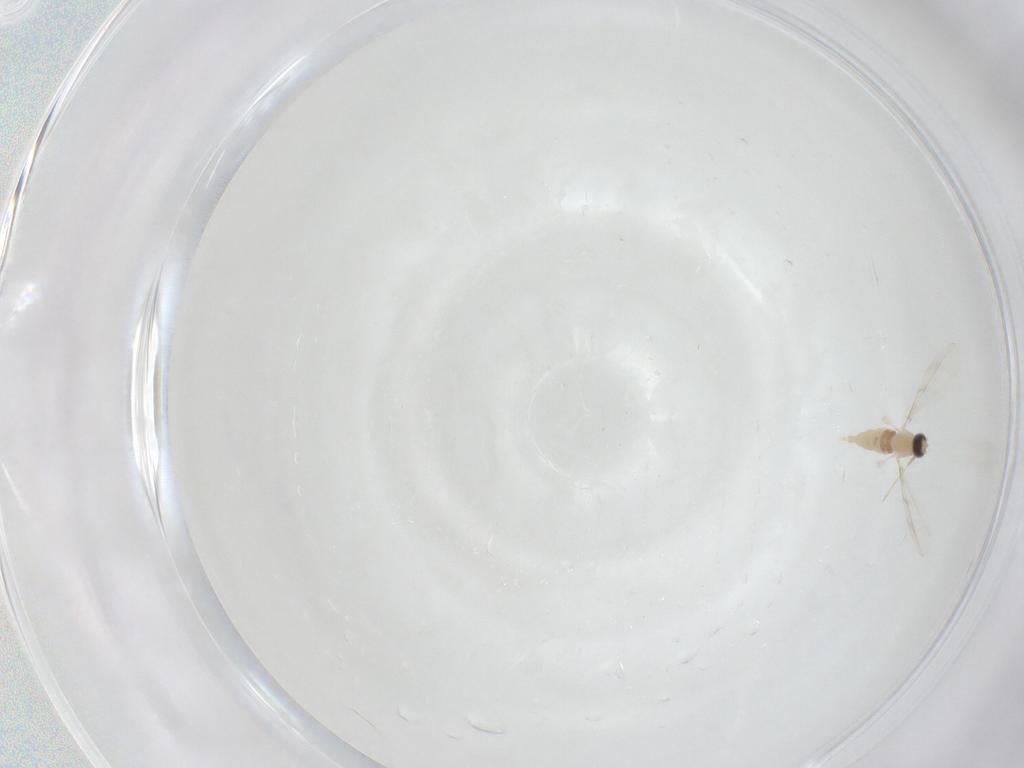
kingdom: Animalia
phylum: Arthropoda
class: Insecta
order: Diptera
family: Cecidomyiidae
